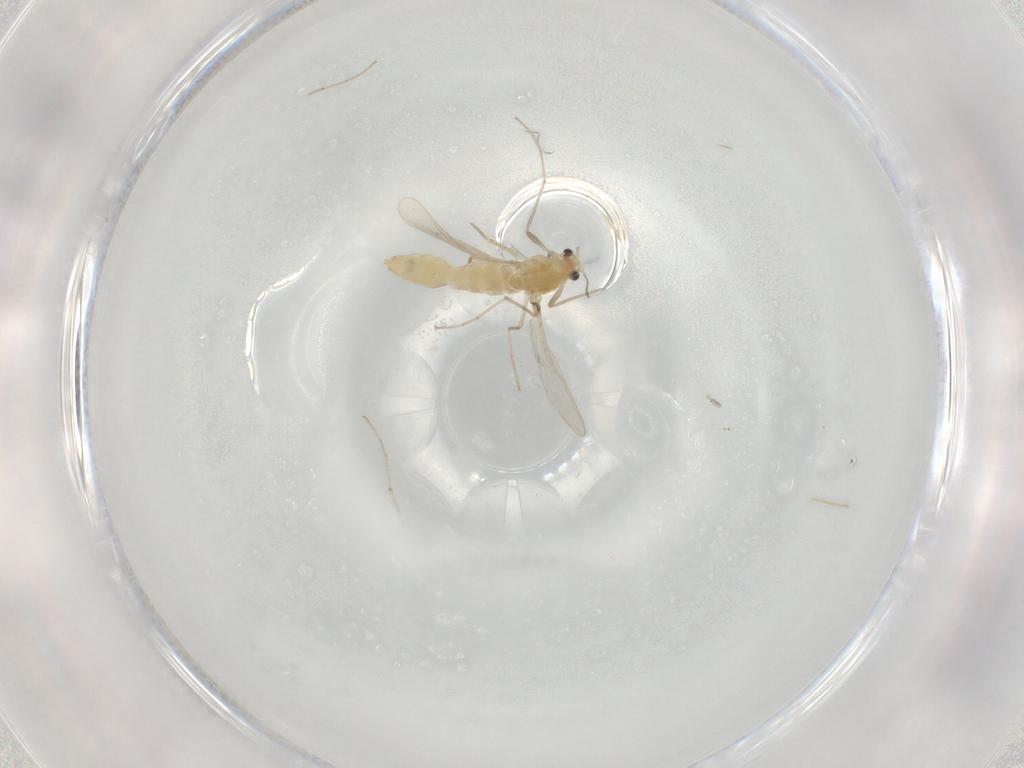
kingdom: Animalia
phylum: Arthropoda
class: Insecta
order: Diptera
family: Chironomidae
